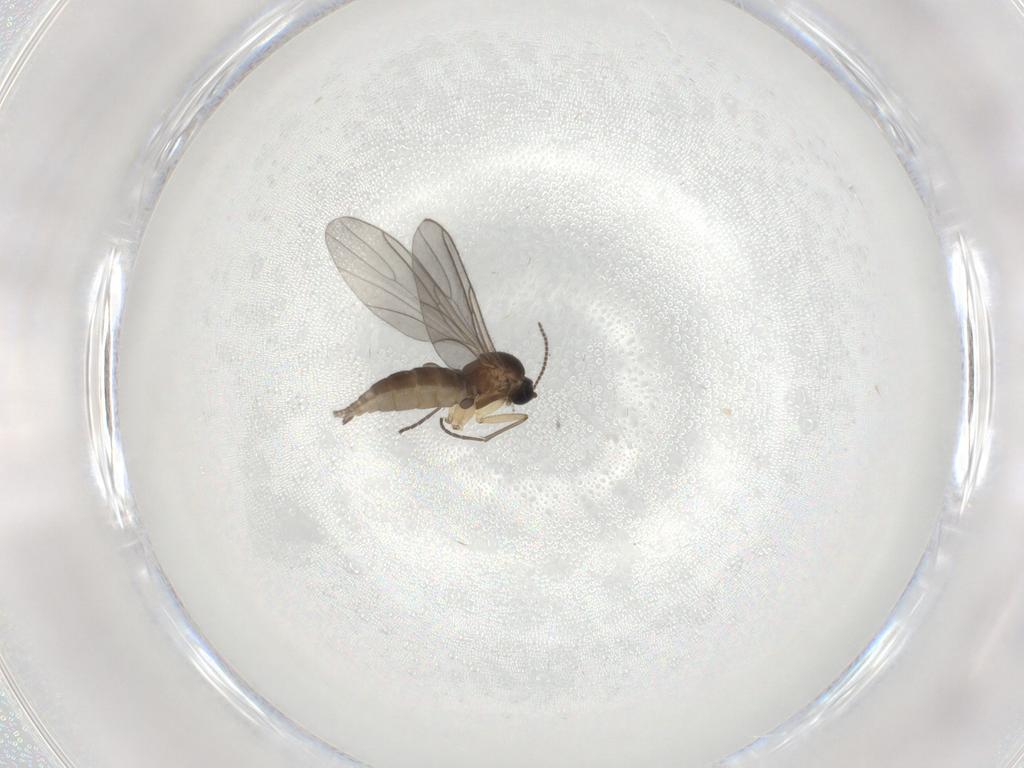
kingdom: Animalia
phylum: Arthropoda
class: Insecta
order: Diptera
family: Sciaridae
